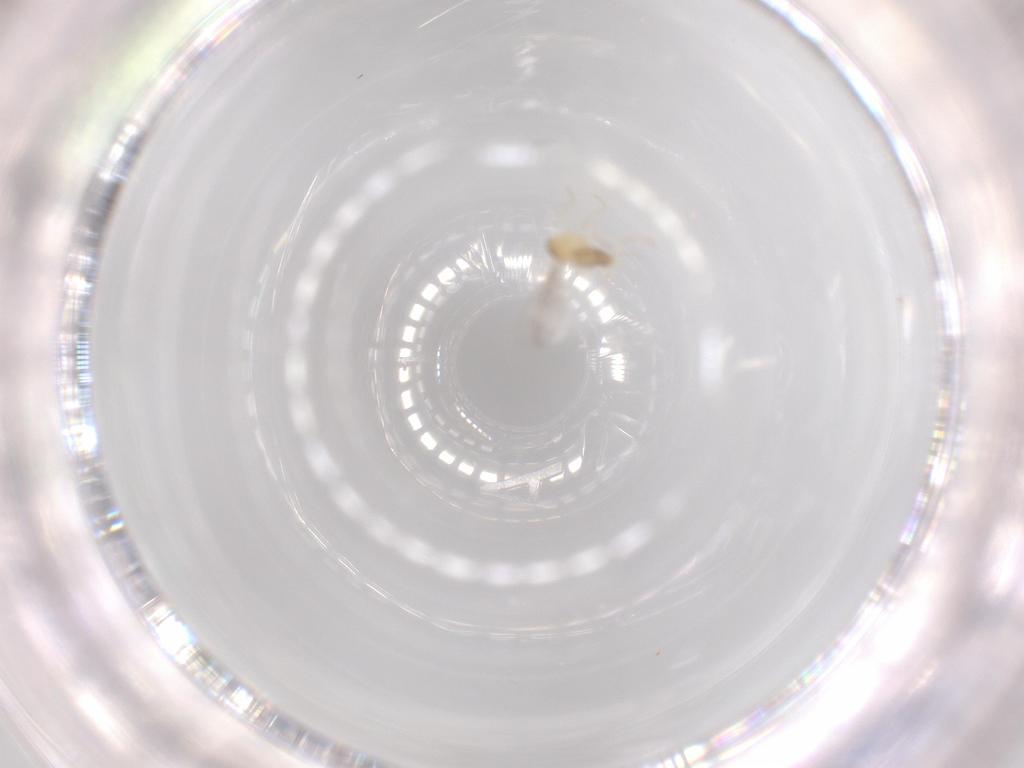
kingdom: Animalia
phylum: Arthropoda
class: Insecta
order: Diptera
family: Cecidomyiidae
